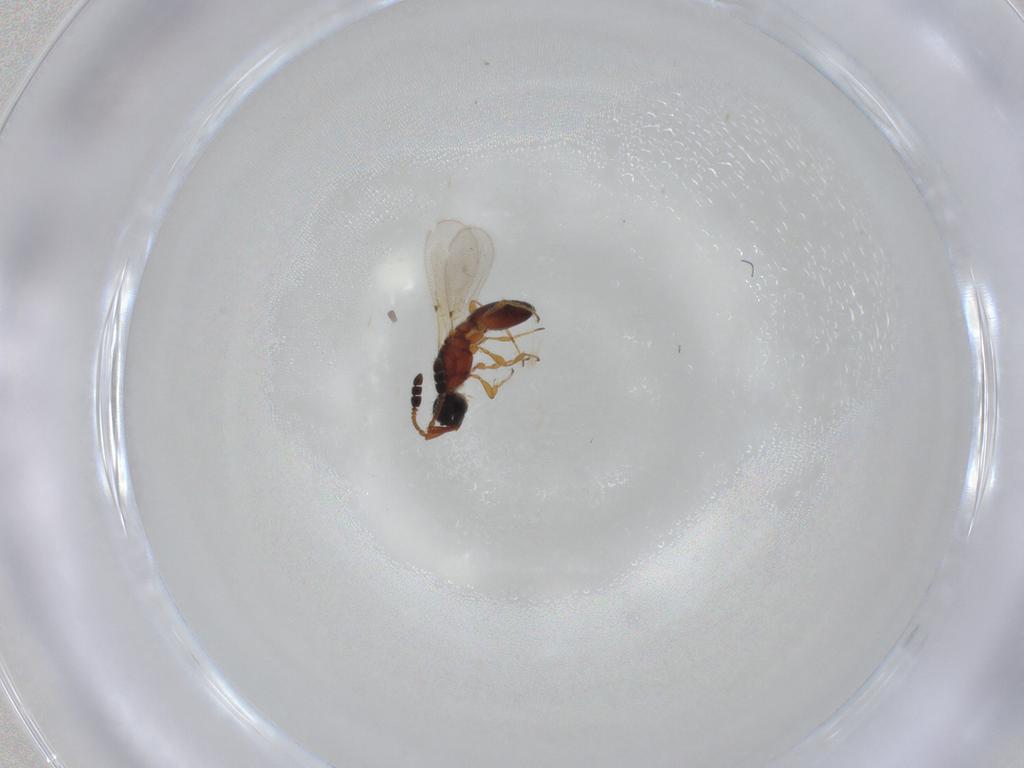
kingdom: Animalia
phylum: Arthropoda
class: Insecta
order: Hymenoptera
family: Diapriidae
